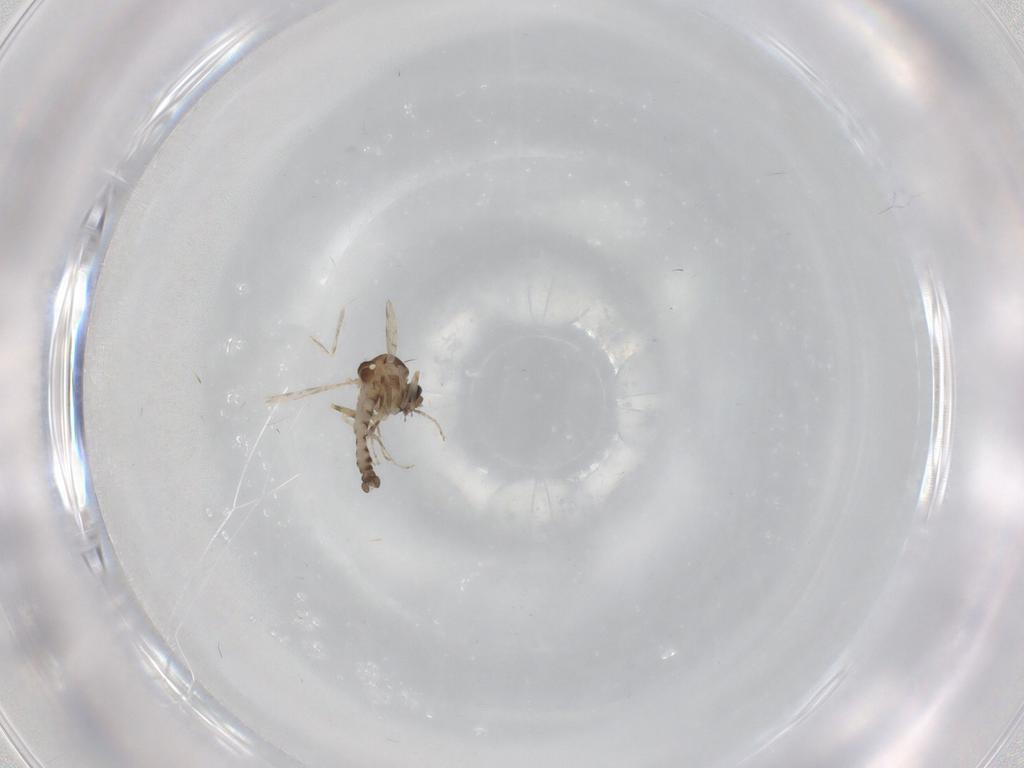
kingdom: Animalia
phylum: Arthropoda
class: Insecta
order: Diptera
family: Ceratopogonidae
